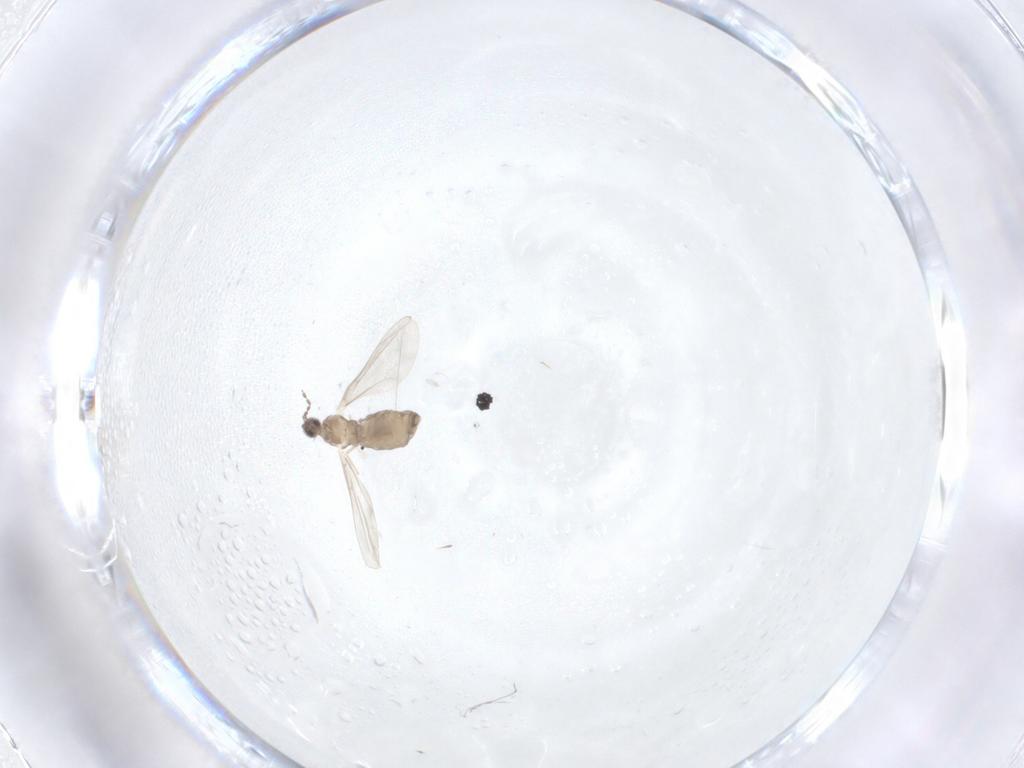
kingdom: Animalia
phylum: Arthropoda
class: Insecta
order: Diptera
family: Cecidomyiidae
